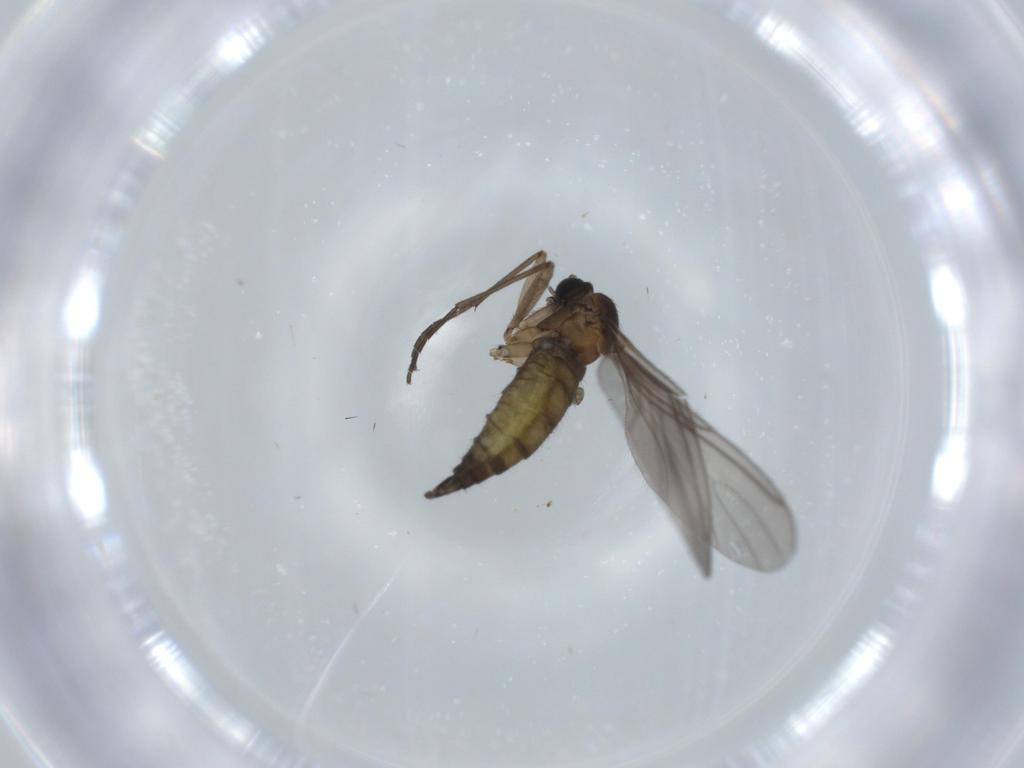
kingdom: Animalia
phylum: Arthropoda
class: Insecta
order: Diptera
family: Sciaridae
